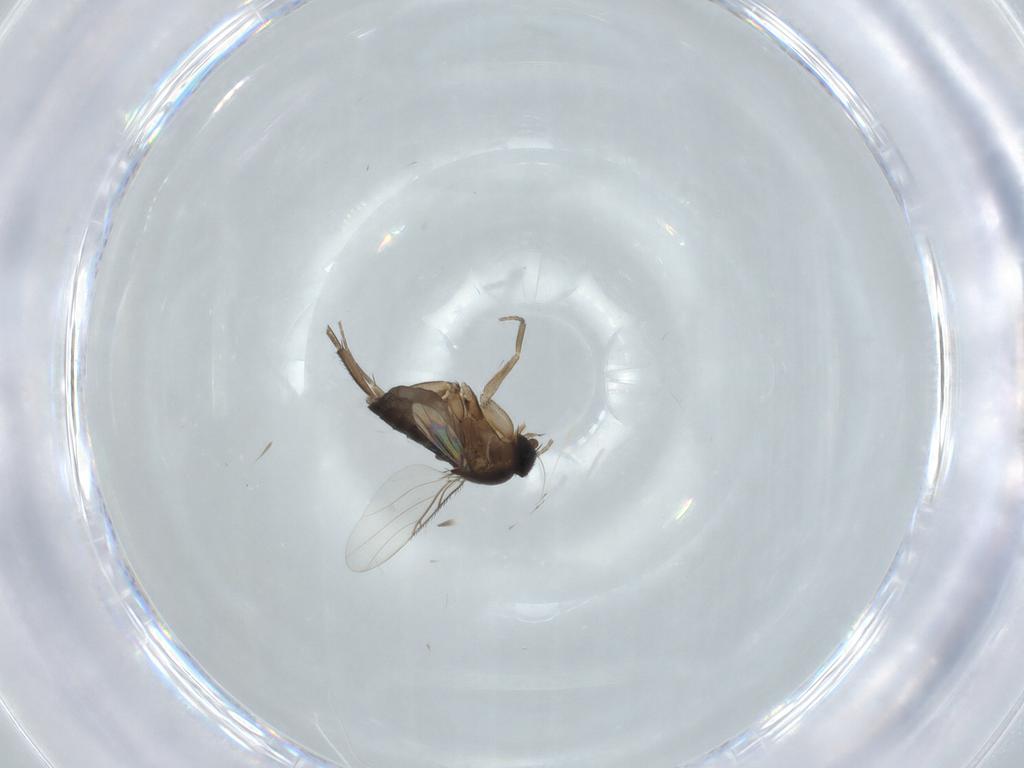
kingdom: Animalia
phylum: Arthropoda
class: Insecta
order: Diptera
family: Phoridae
